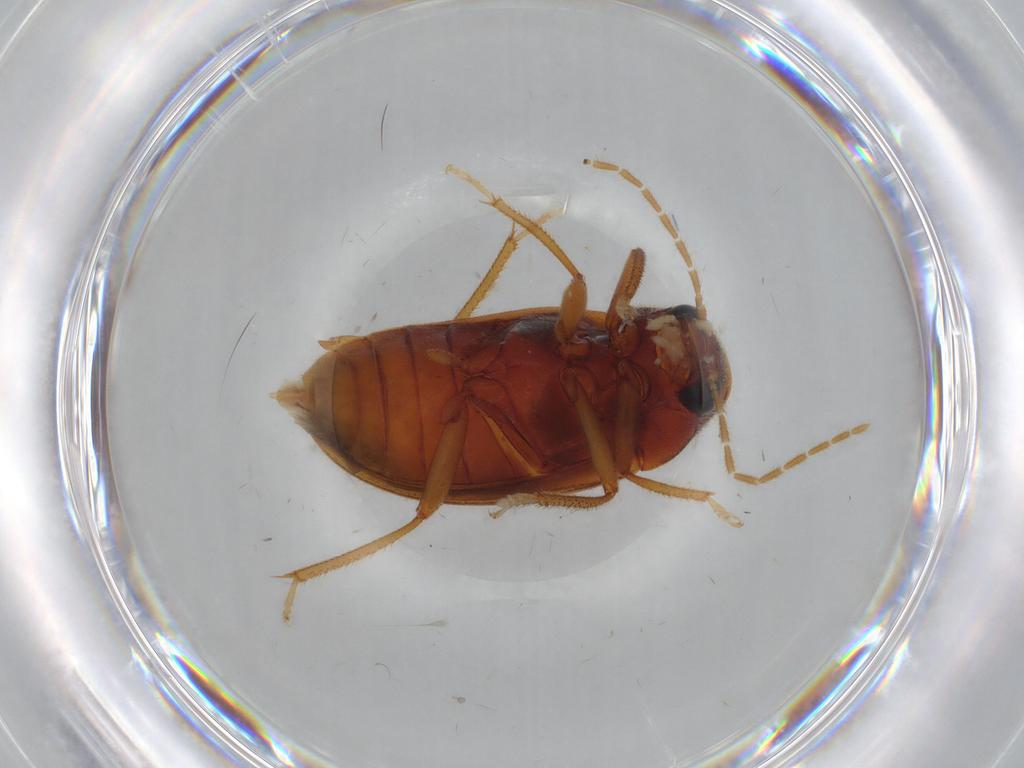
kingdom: Animalia
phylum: Arthropoda
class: Insecta
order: Coleoptera
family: Ptilodactylidae
